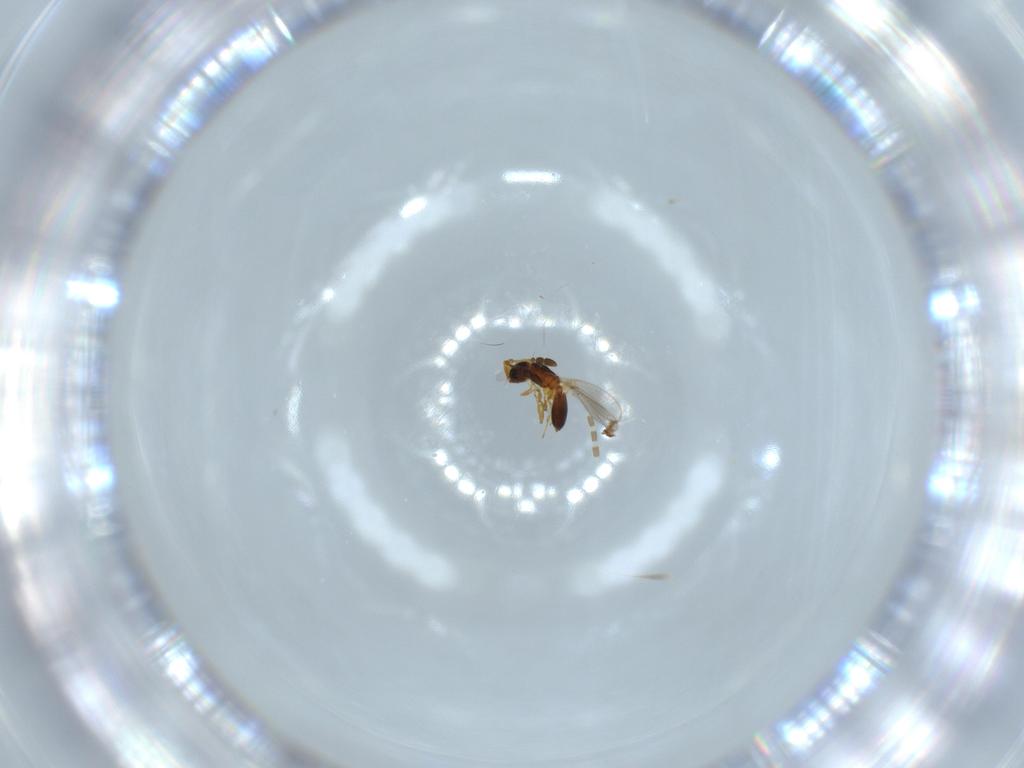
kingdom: Animalia
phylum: Arthropoda
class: Insecta
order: Hymenoptera
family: Diapriidae
